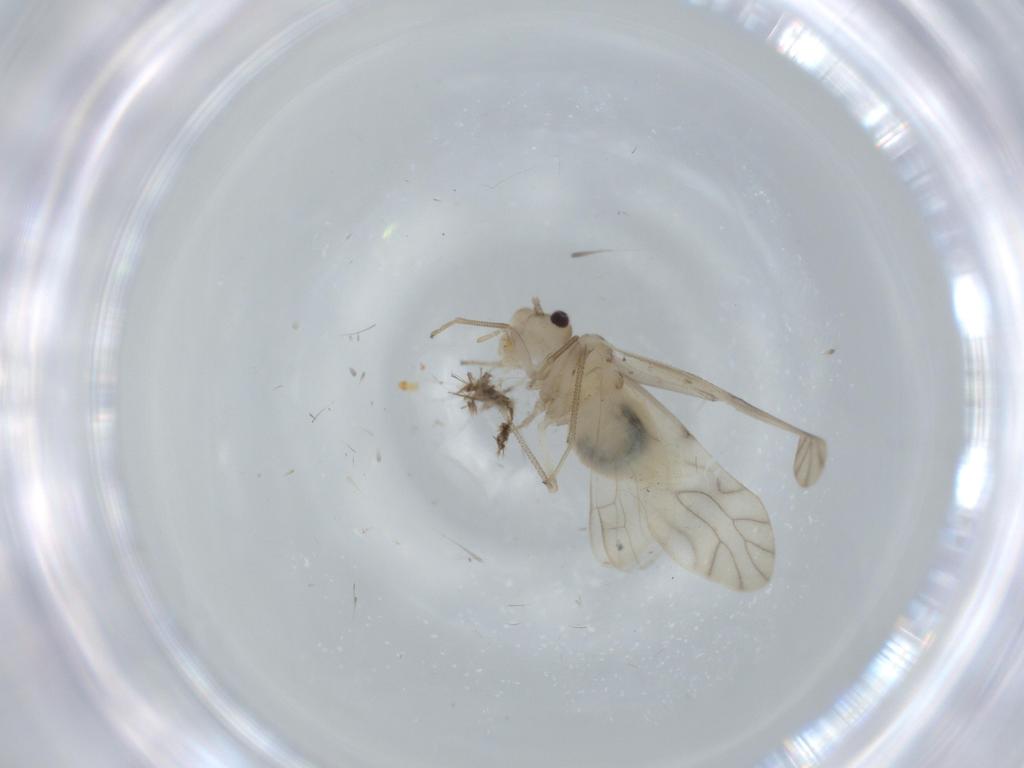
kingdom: Animalia
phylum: Arthropoda
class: Insecta
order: Psocodea
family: Caeciliusidae
